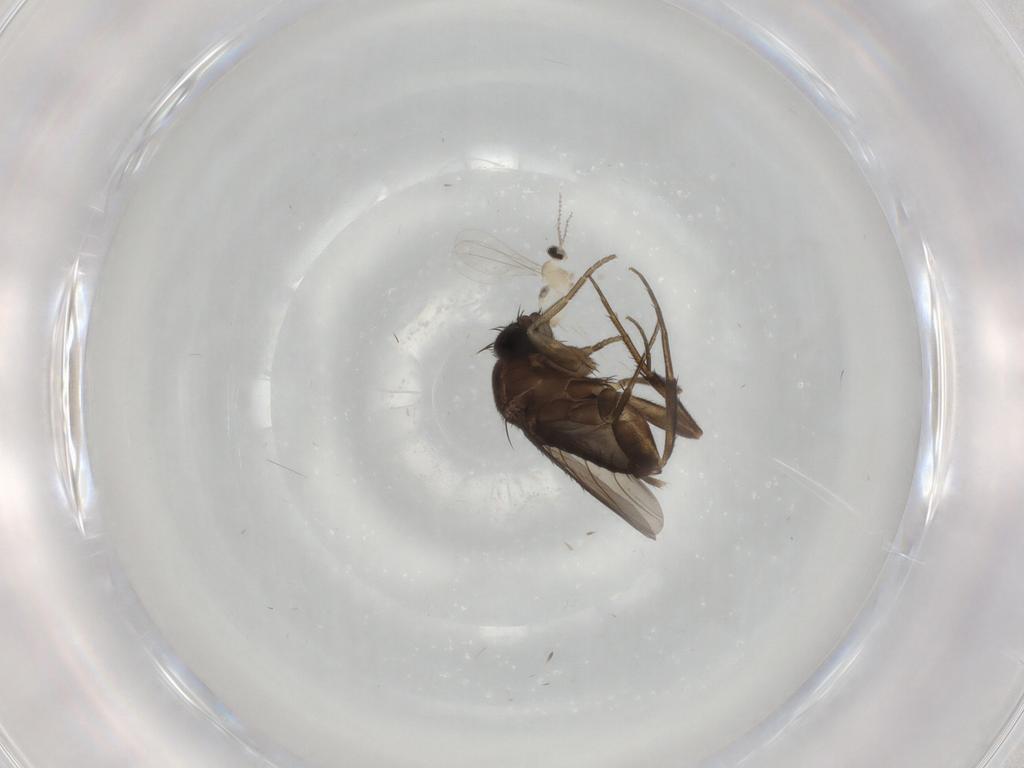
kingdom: Animalia
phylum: Arthropoda
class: Insecta
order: Diptera
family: Phoridae
